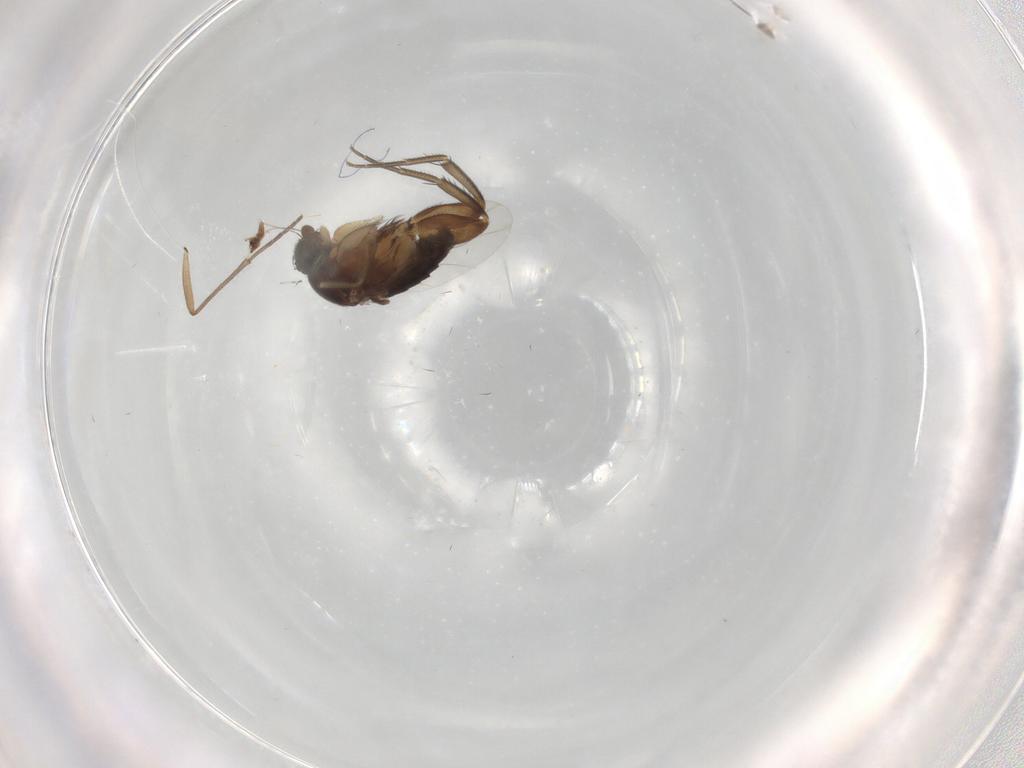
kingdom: Animalia
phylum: Arthropoda
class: Insecta
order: Diptera
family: Phoridae
